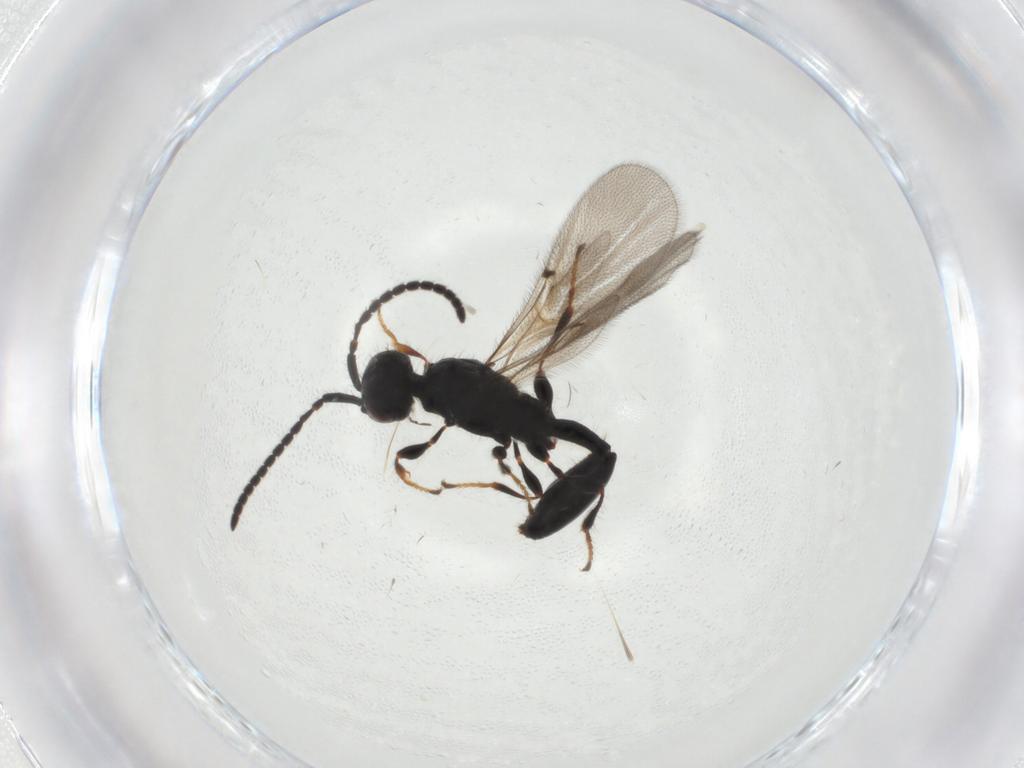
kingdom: Animalia
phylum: Arthropoda
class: Insecta
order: Hymenoptera
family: Diapriidae
